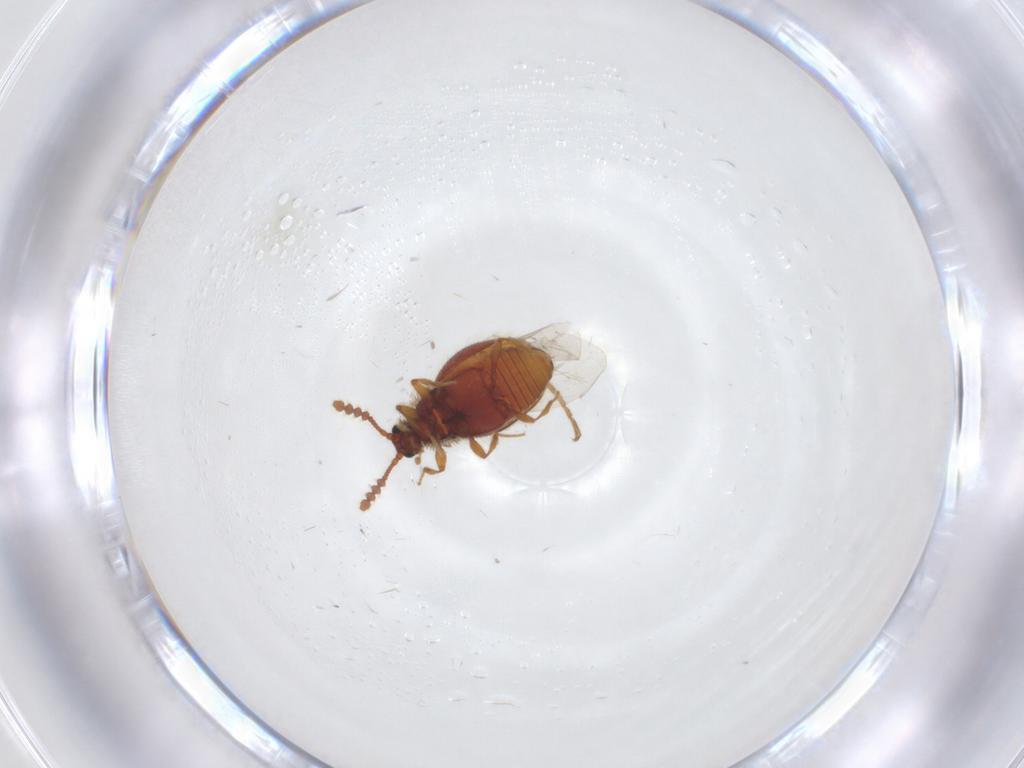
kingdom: Animalia
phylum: Arthropoda
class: Insecta
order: Coleoptera
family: Staphylinidae
